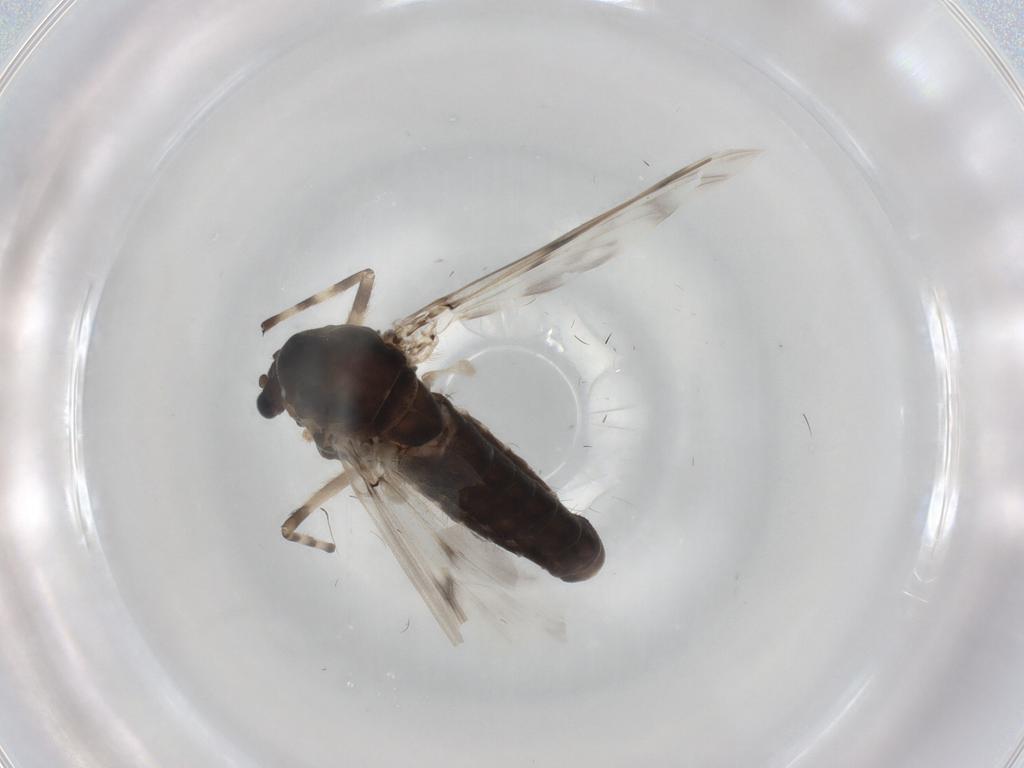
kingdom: Animalia
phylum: Arthropoda
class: Insecta
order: Diptera
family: Chironomidae
